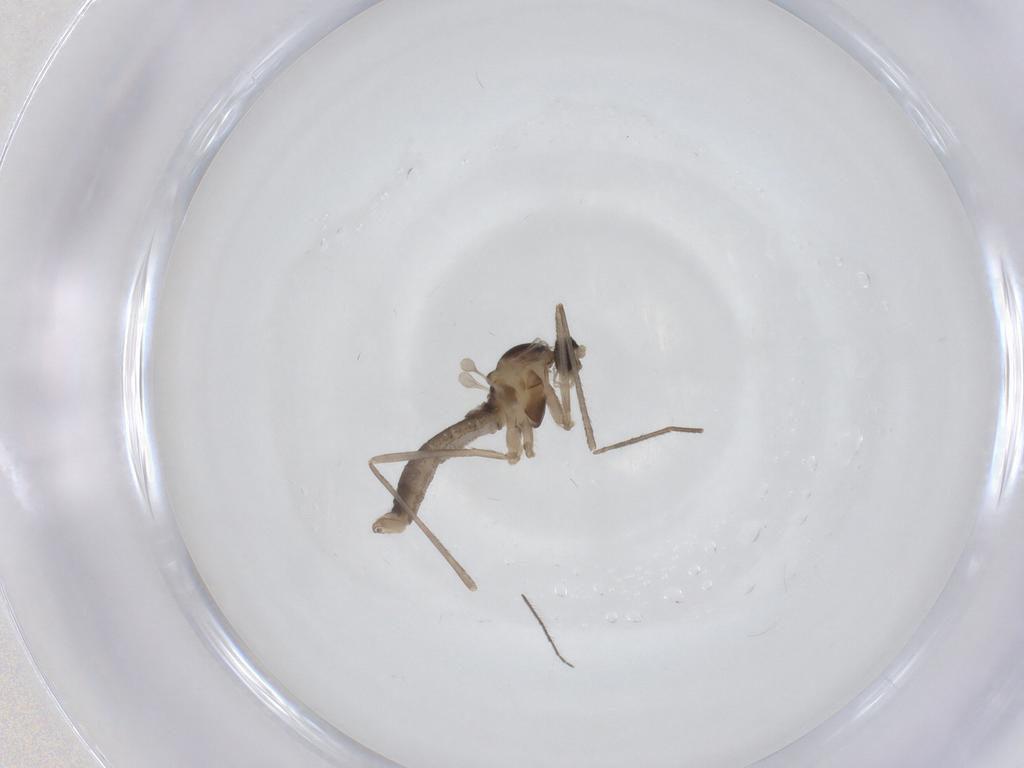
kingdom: Animalia
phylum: Arthropoda
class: Insecta
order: Diptera
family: Cecidomyiidae
